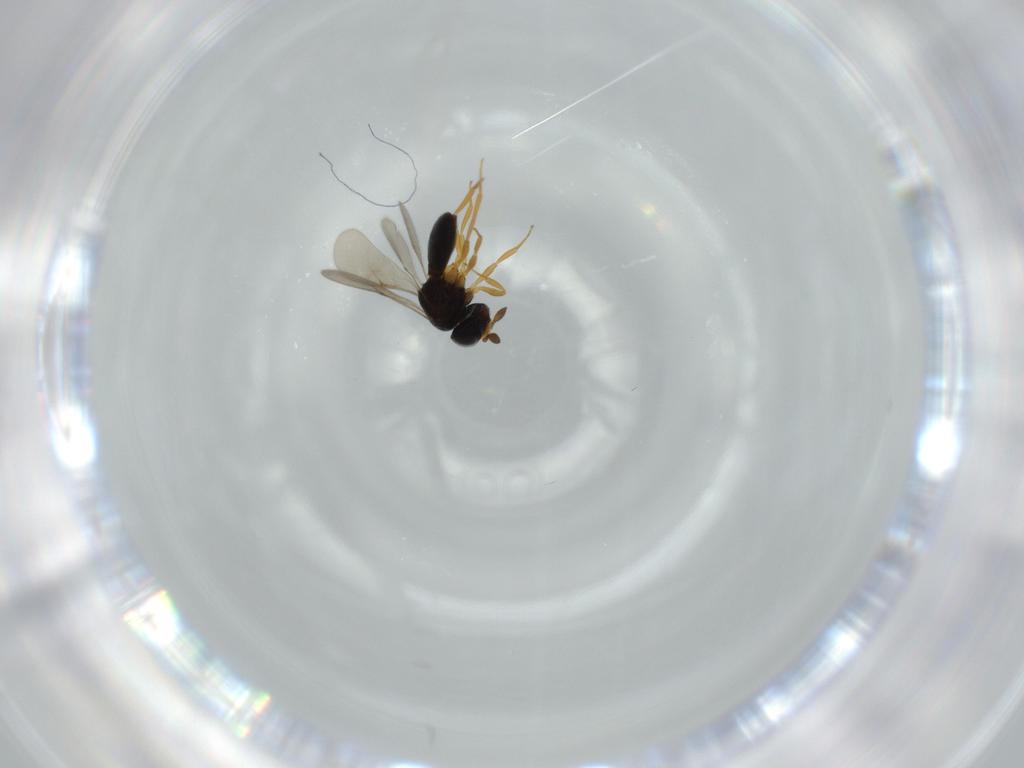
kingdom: Animalia
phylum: Arthropoda
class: Insecta
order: Hymenoptera
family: Scelionidae
